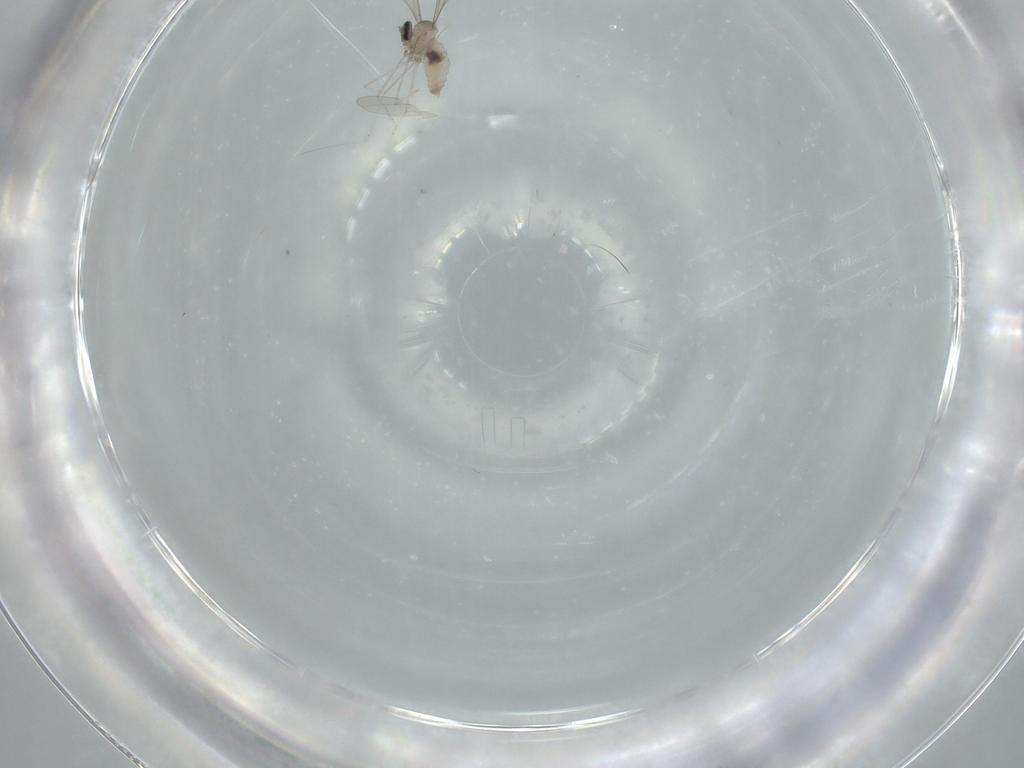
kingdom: Animalia
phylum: Arthropoda
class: Insecta
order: Diptera
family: Cecidomyiidae
